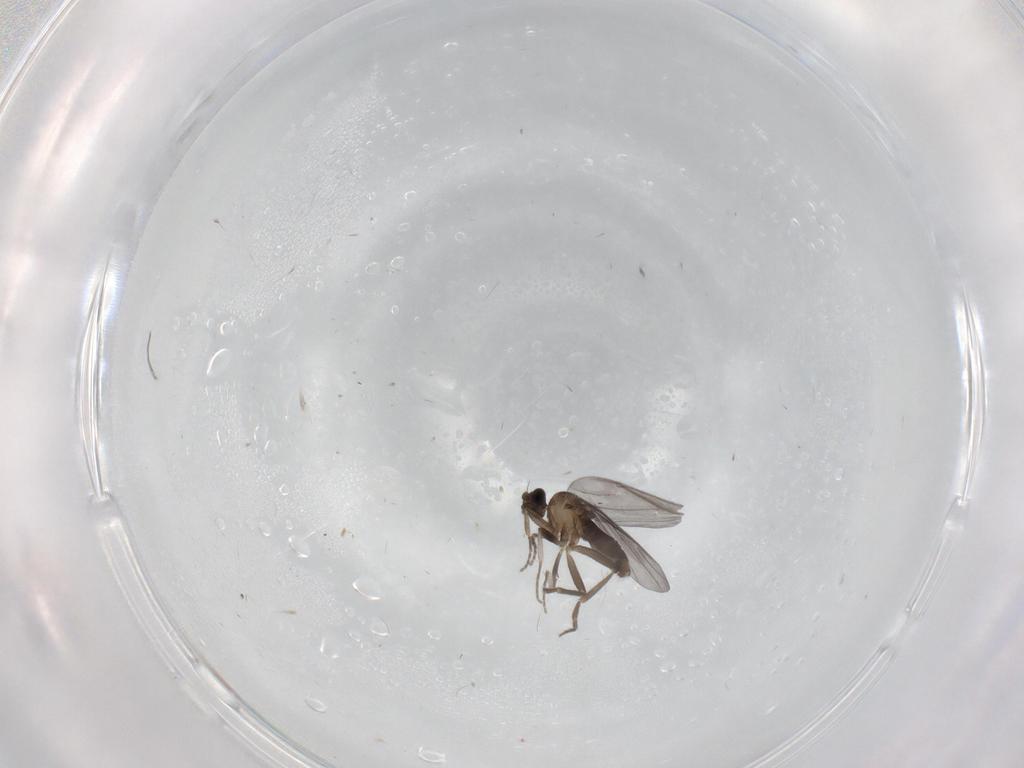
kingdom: Animalia
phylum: Arthropoda
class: Insecta
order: Diptera
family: Phoridae
